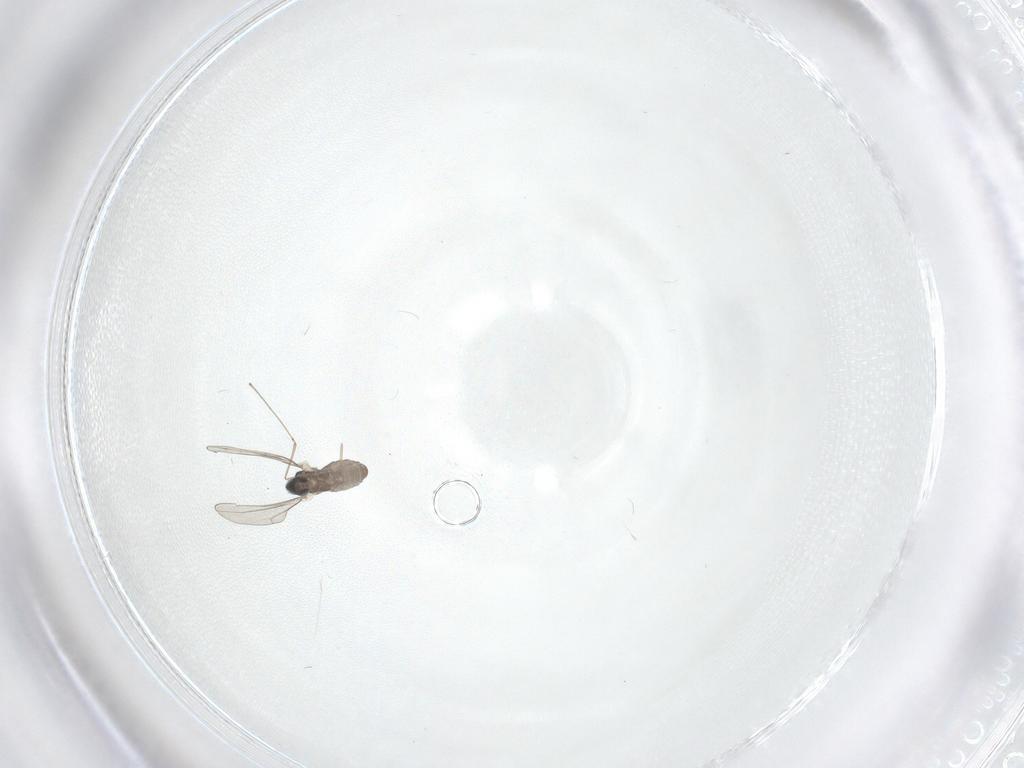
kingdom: Animalia
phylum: Arthropoda
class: Insecta
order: Diptera
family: Cecidomyiidae
